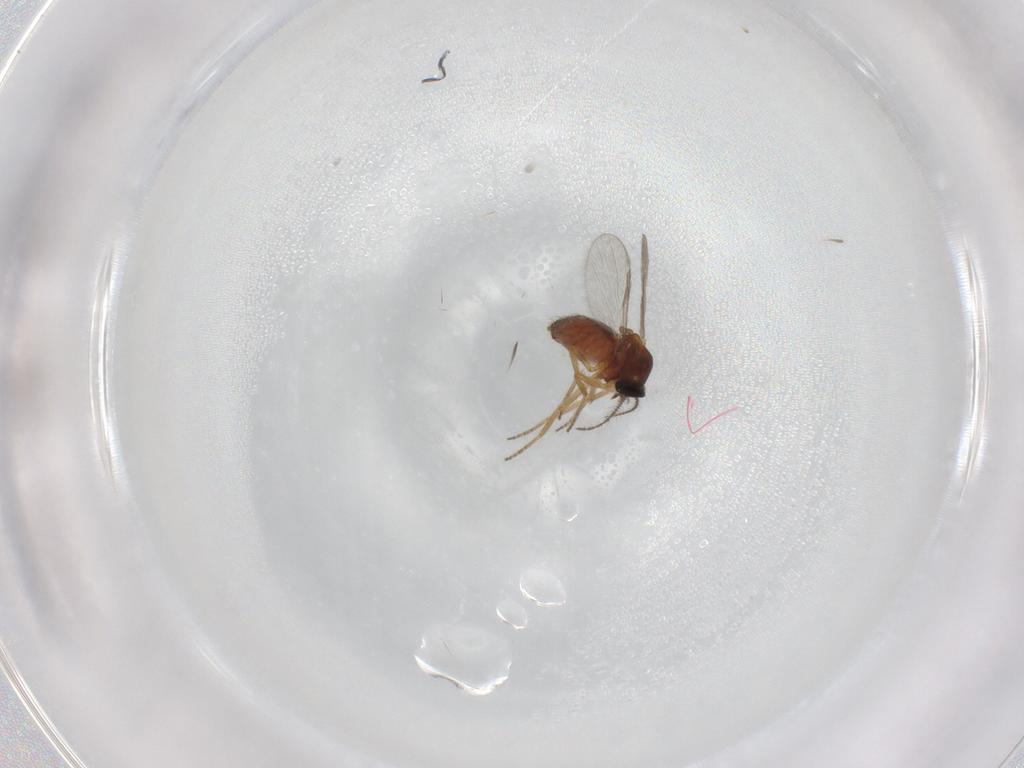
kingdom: Animalia
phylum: Arthropoda
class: Insecta
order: Diptera
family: Ceratopogonidae
